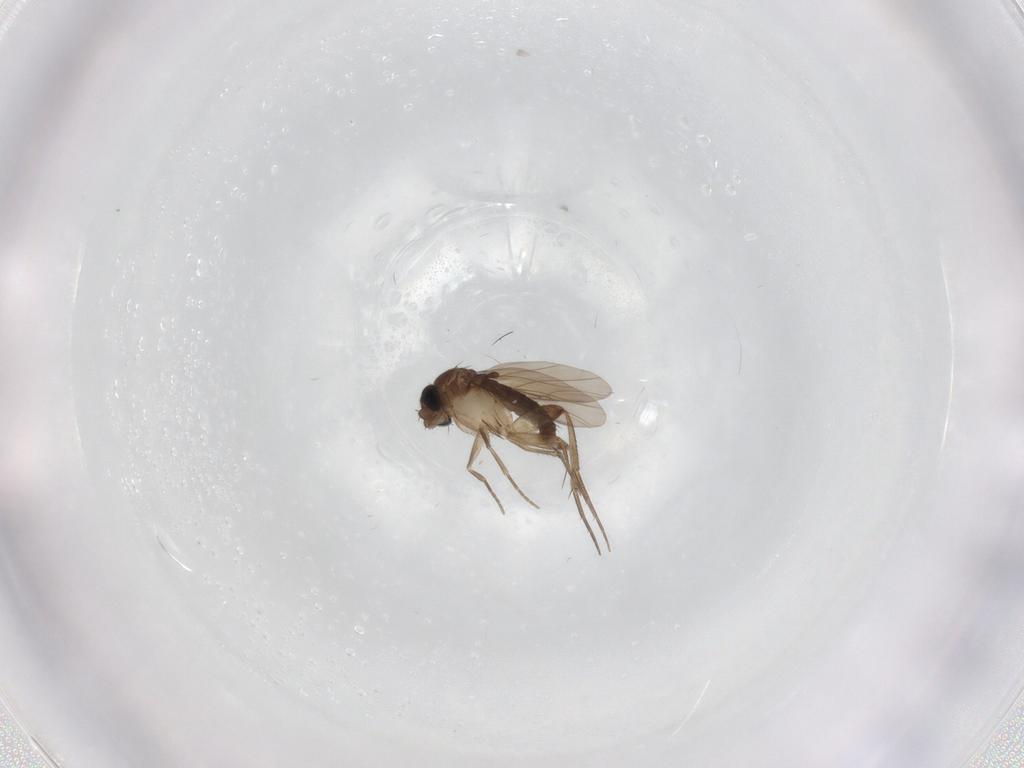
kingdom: Animalia
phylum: Arthropoda
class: Insecta
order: Diptera
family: Phoridae
